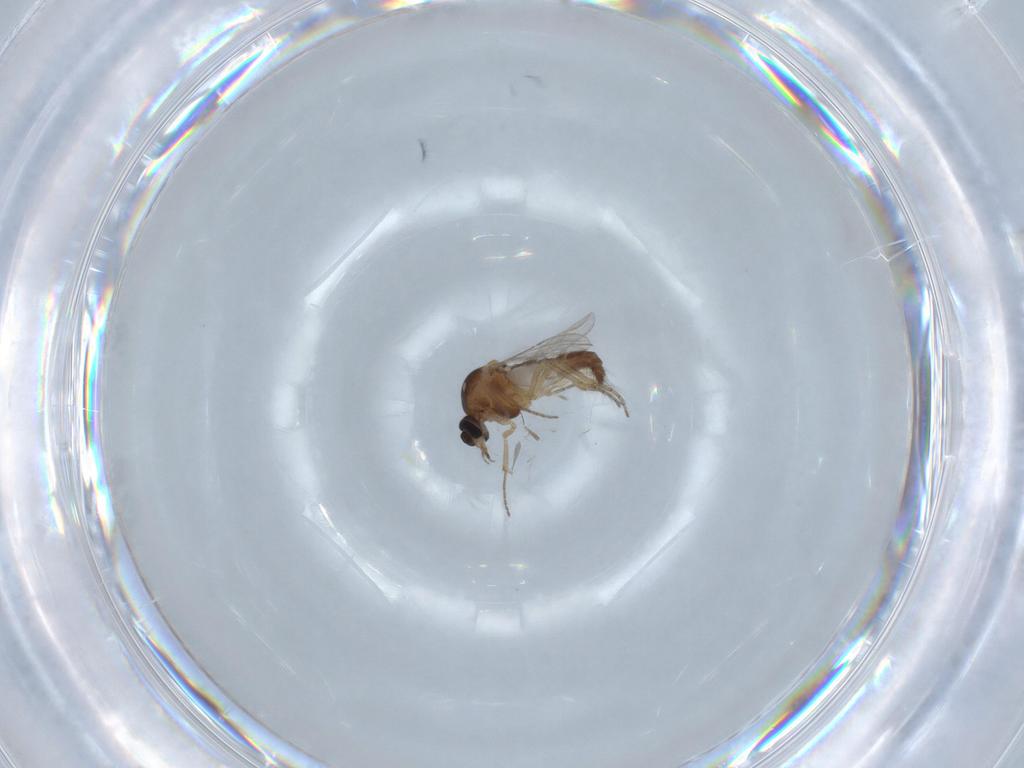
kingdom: Animalia
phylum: Arthropoda
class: Insecta
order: Diptera
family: Ceratopogonidae
